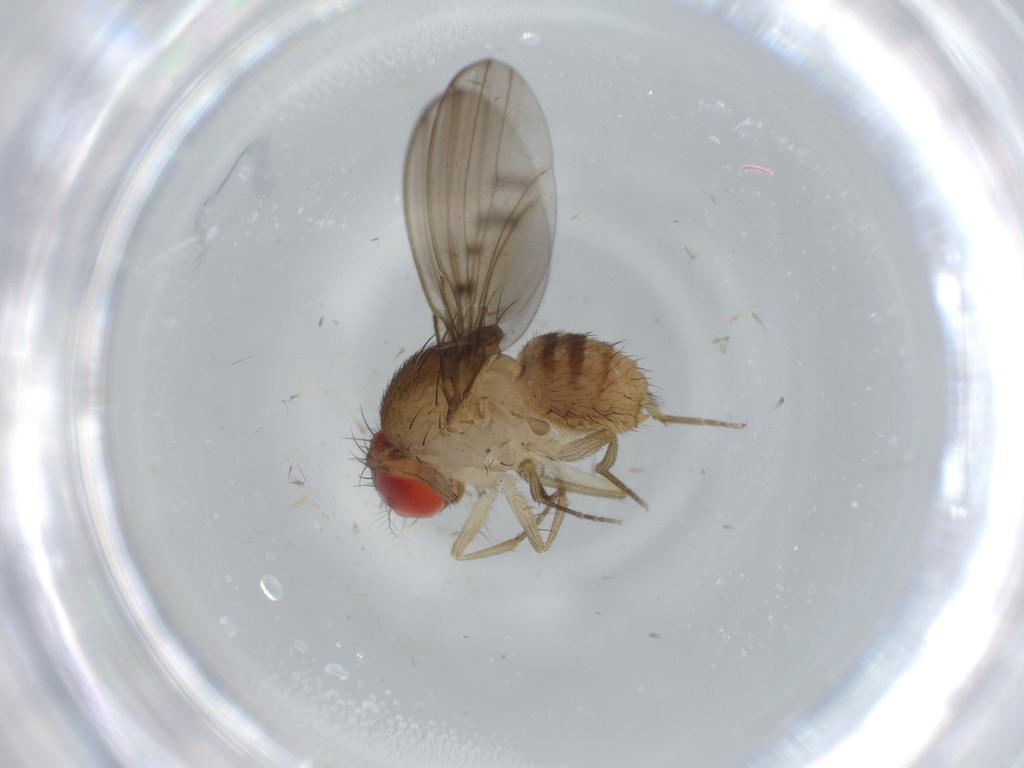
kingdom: Animalia
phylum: Arthropoda
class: Insecta
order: Diptera
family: Drosophilidae
